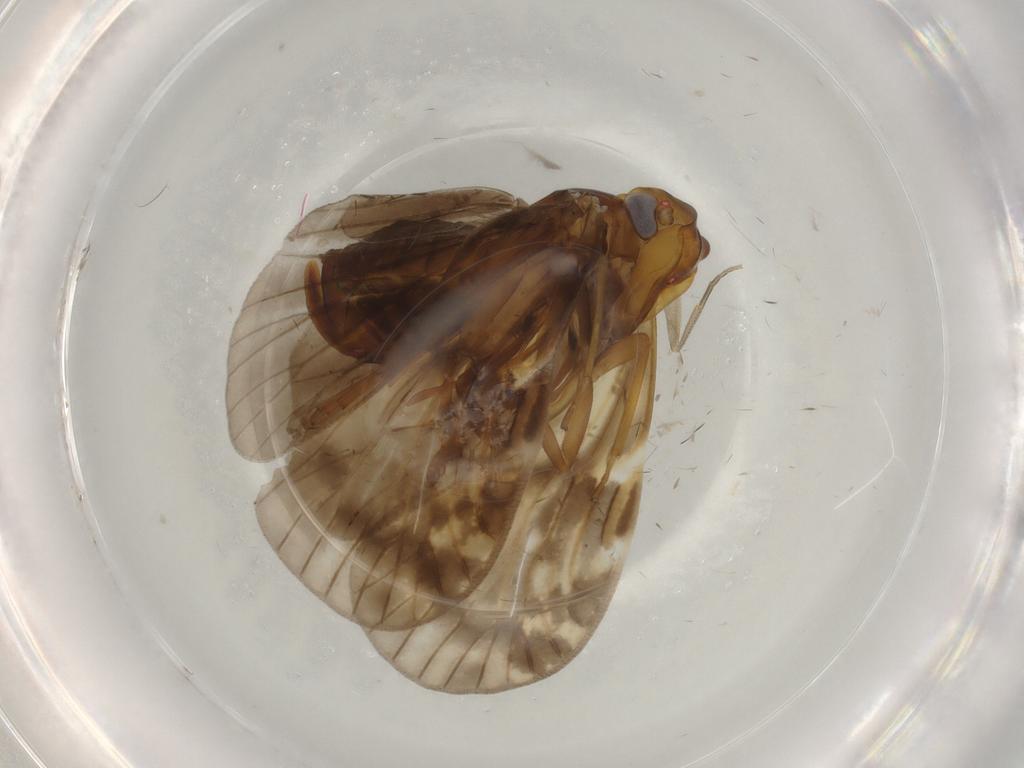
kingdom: Animalia
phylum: Arthropoda
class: Insecta
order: Hemiptera
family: Cixiidae
